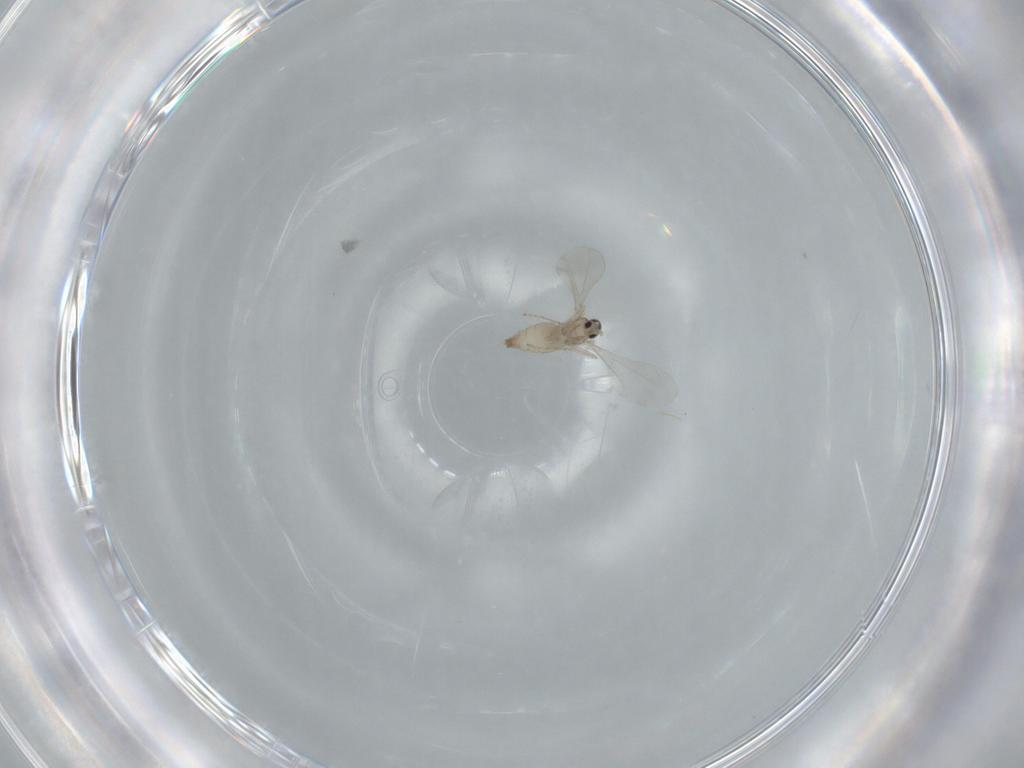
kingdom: Animalia
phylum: Arthropoda
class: Insecta
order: Diptera
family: Cecidomyiidae
